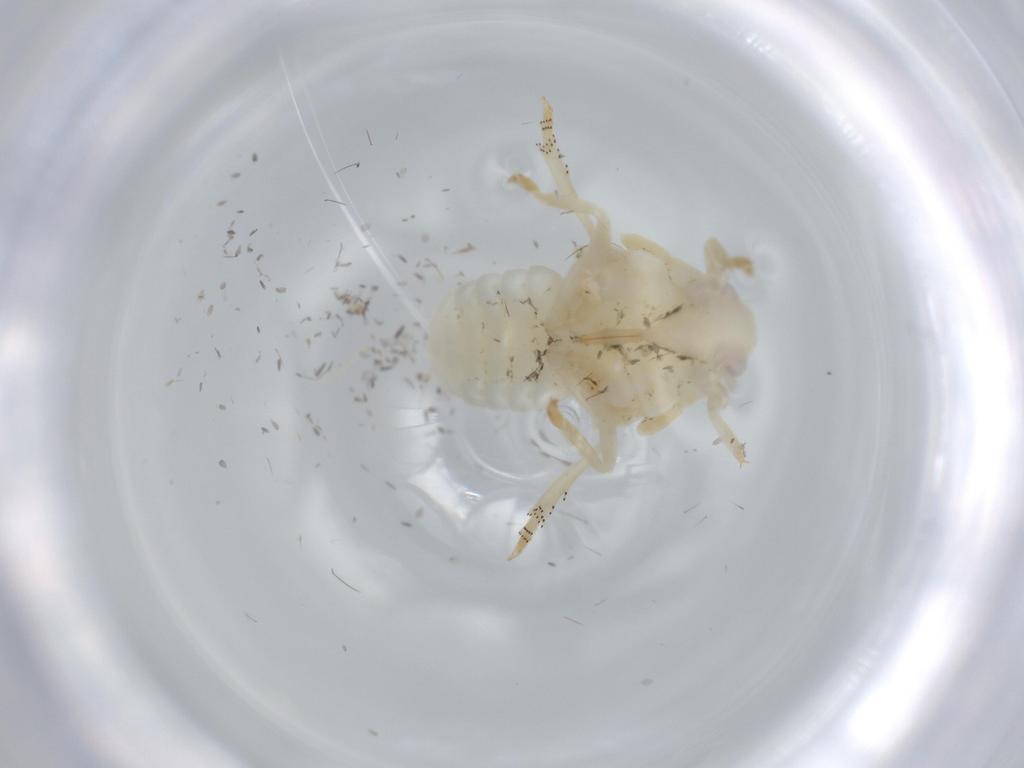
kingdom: Animalia
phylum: Arthropoda
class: Insecta
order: Hemiptera
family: Flatidae
